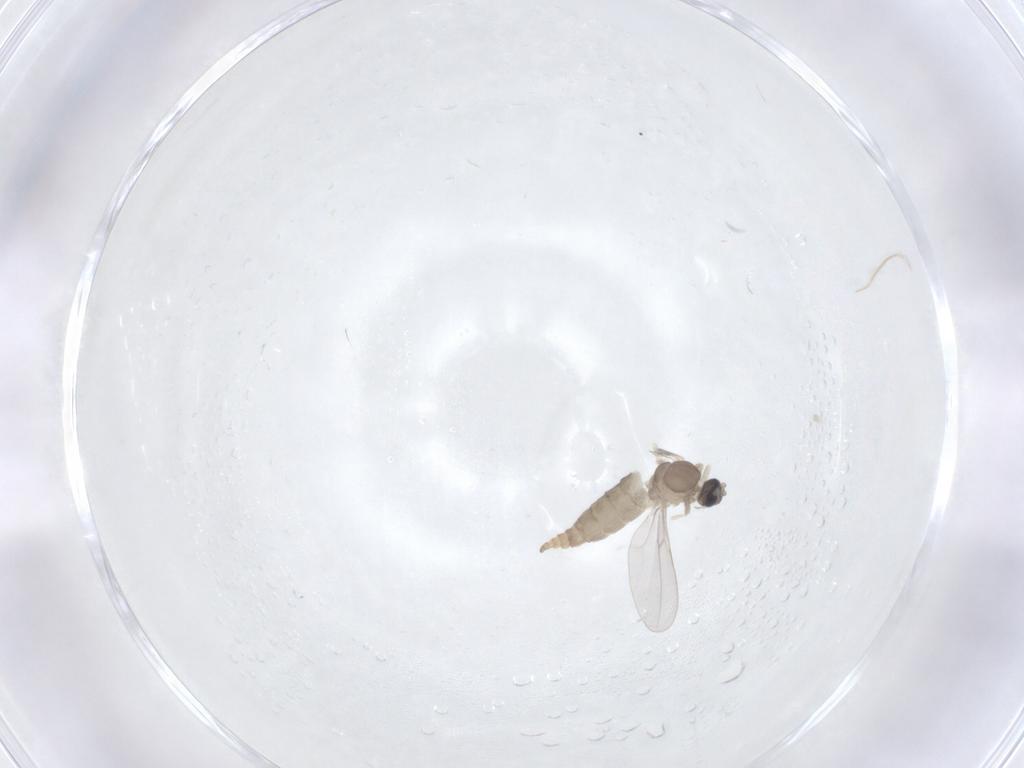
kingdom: Animalia
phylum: Arthropoda
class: Insecta
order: Diptera
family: Cecidomyiidae
